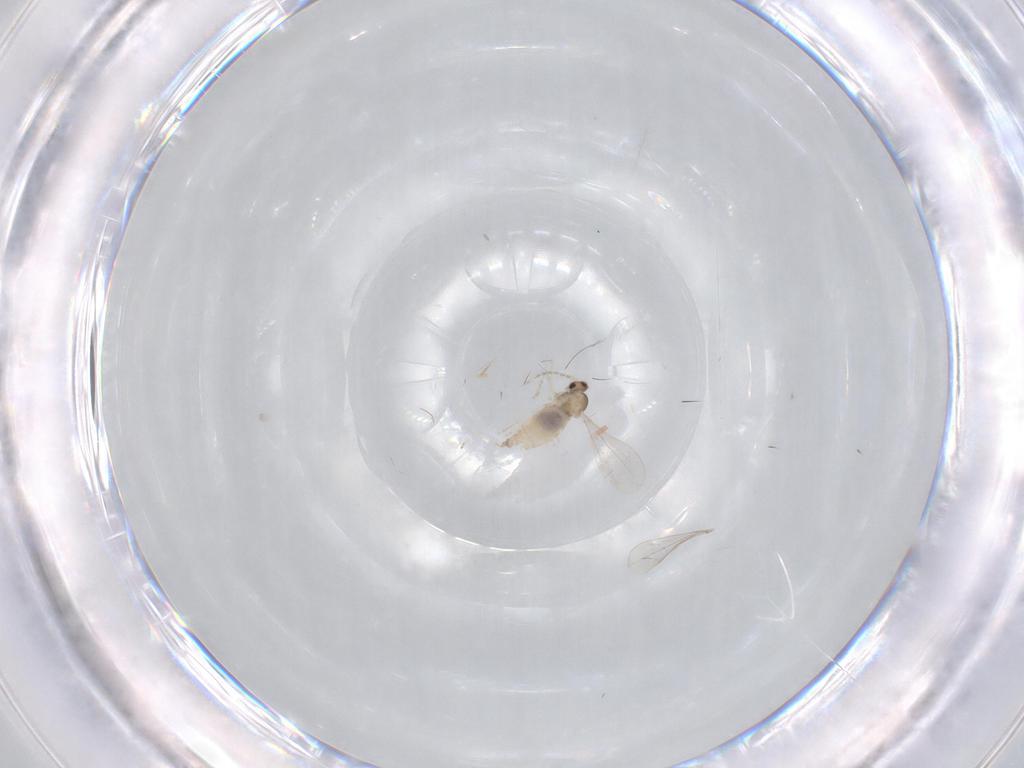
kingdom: Animalia
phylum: Arthropoda
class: Insecta
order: Diptera
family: Cecidomyiidae
